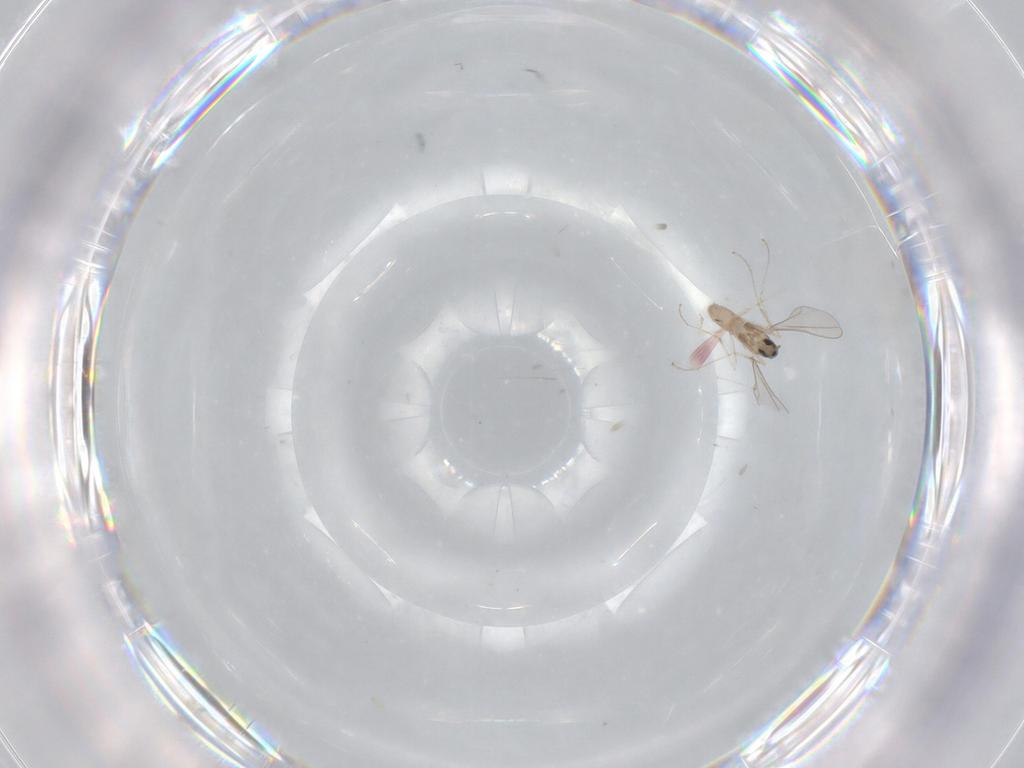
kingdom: Animalia
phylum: Arthropoda
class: Insecta
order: Diptera
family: Cecidomyiidae
